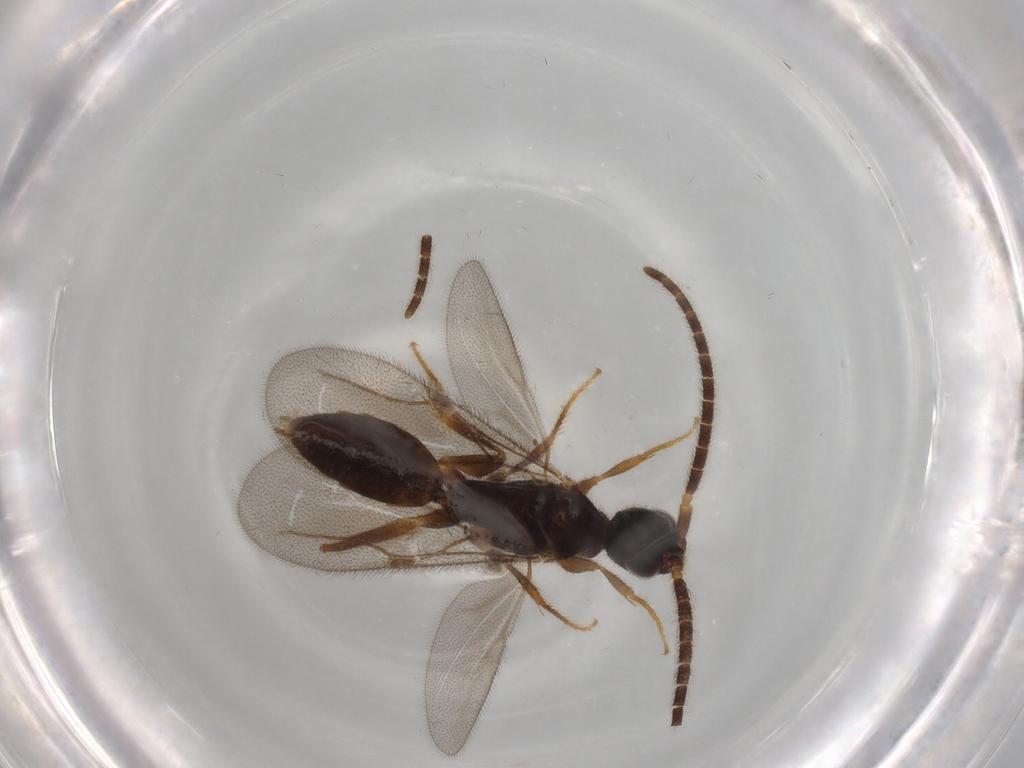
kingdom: Animalia
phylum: Arthropoda
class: Insecta
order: Hymenoptera
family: Bethylidae
